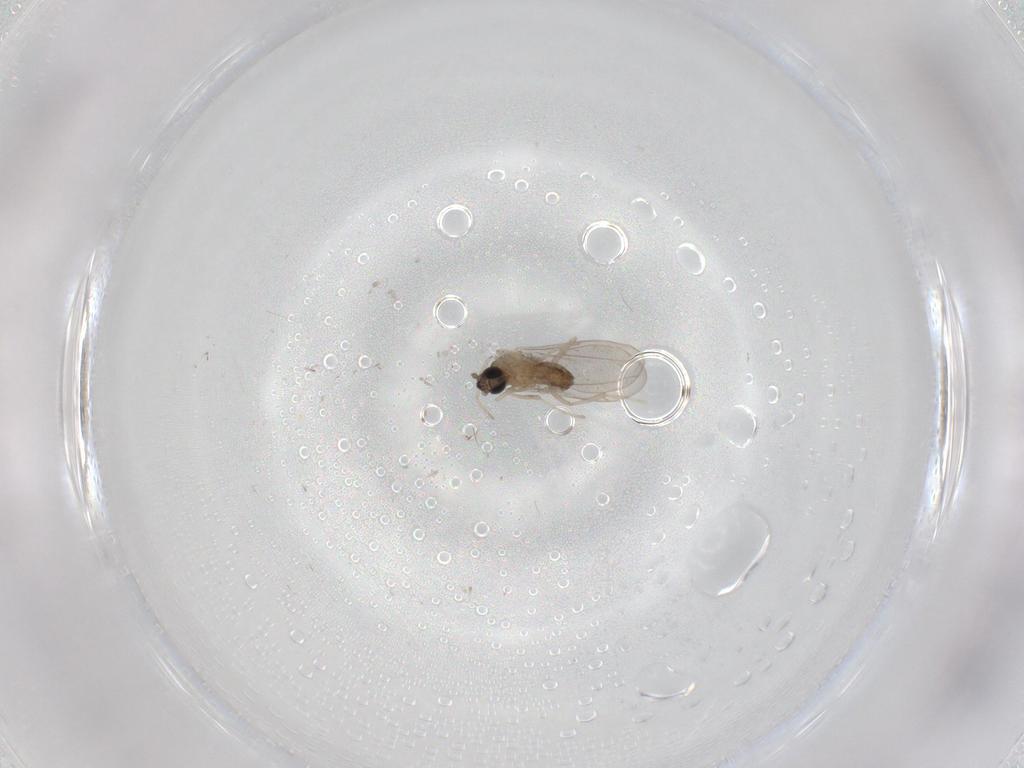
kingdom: Animalia
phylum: Arthropoda
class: Insecta
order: Diptera
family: Cecidomyiidae
